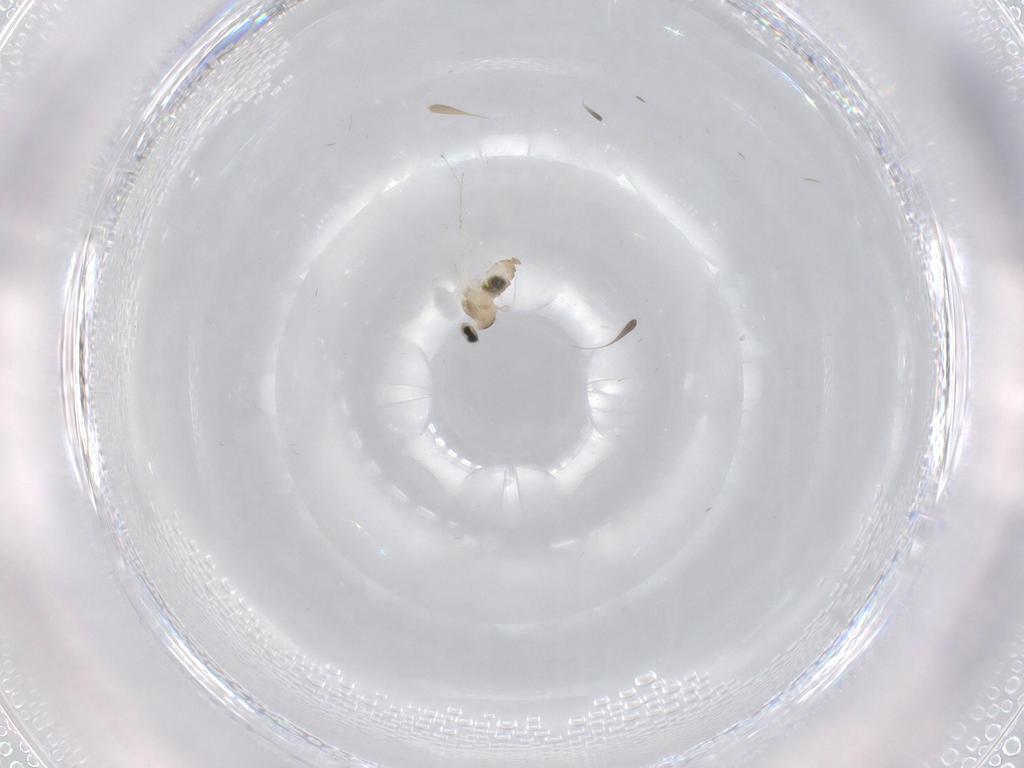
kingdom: Animalia
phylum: Arthropoda
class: Insecta
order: Diptera
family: Cecidomyiidae
